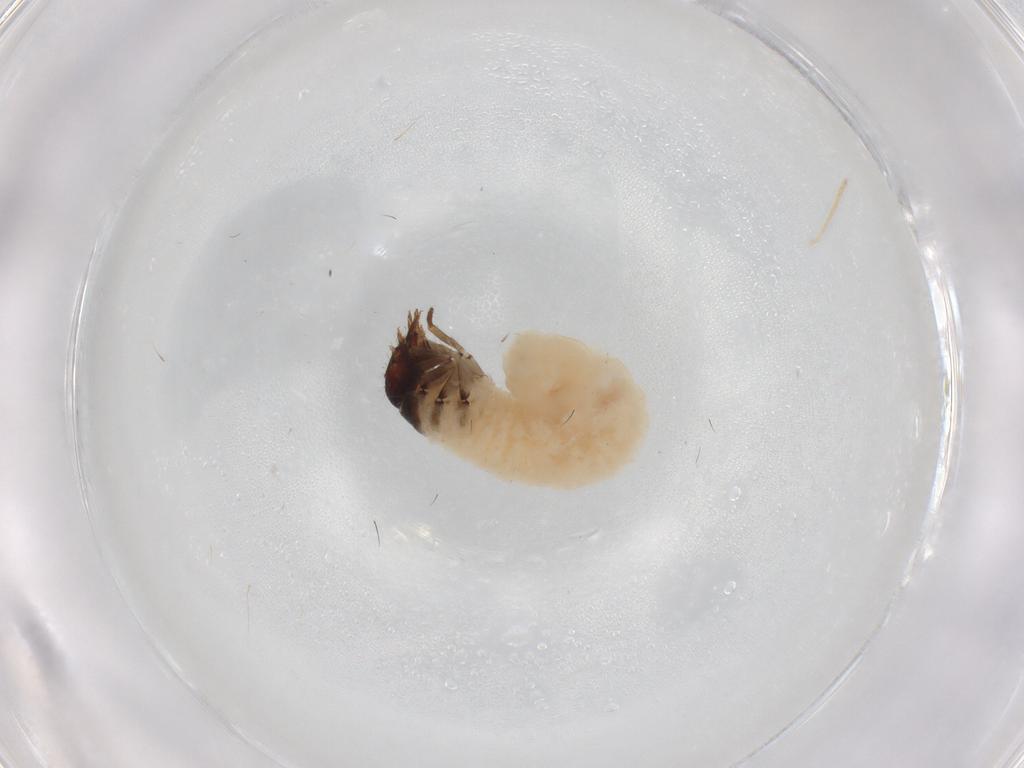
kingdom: Animalia
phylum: Arthropoda
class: Insecta
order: Coleoptera
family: Chrysomelidae
